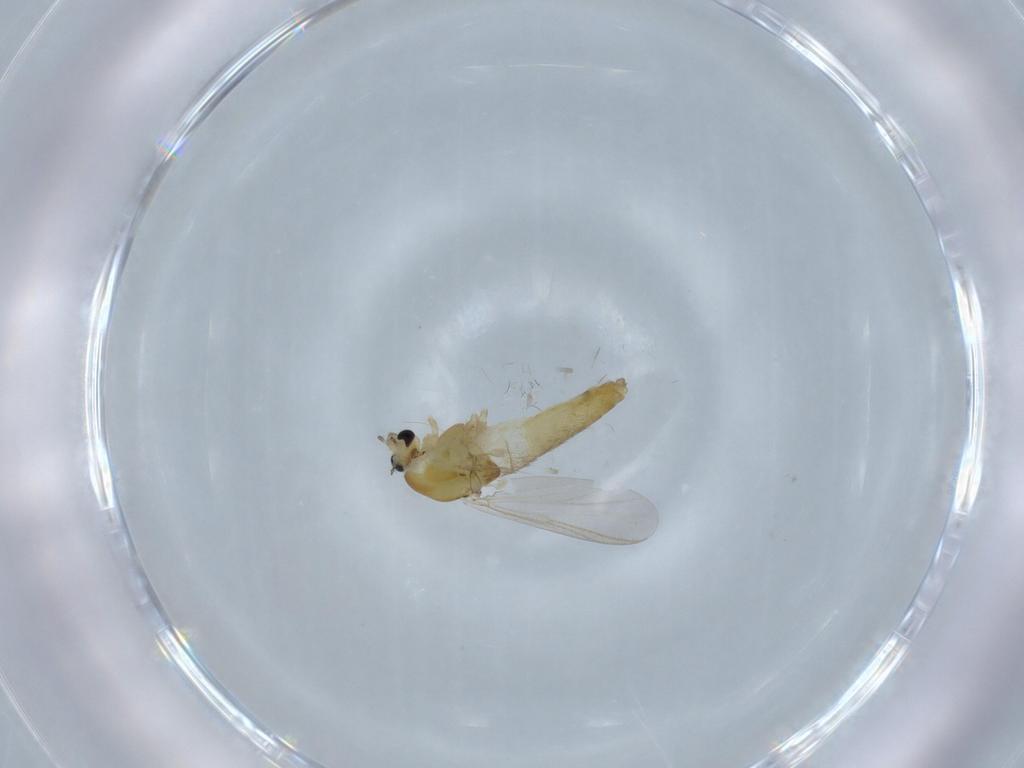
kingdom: Animalia
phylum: Arthropoda
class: Insecta
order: Diptera
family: Chironomidae
